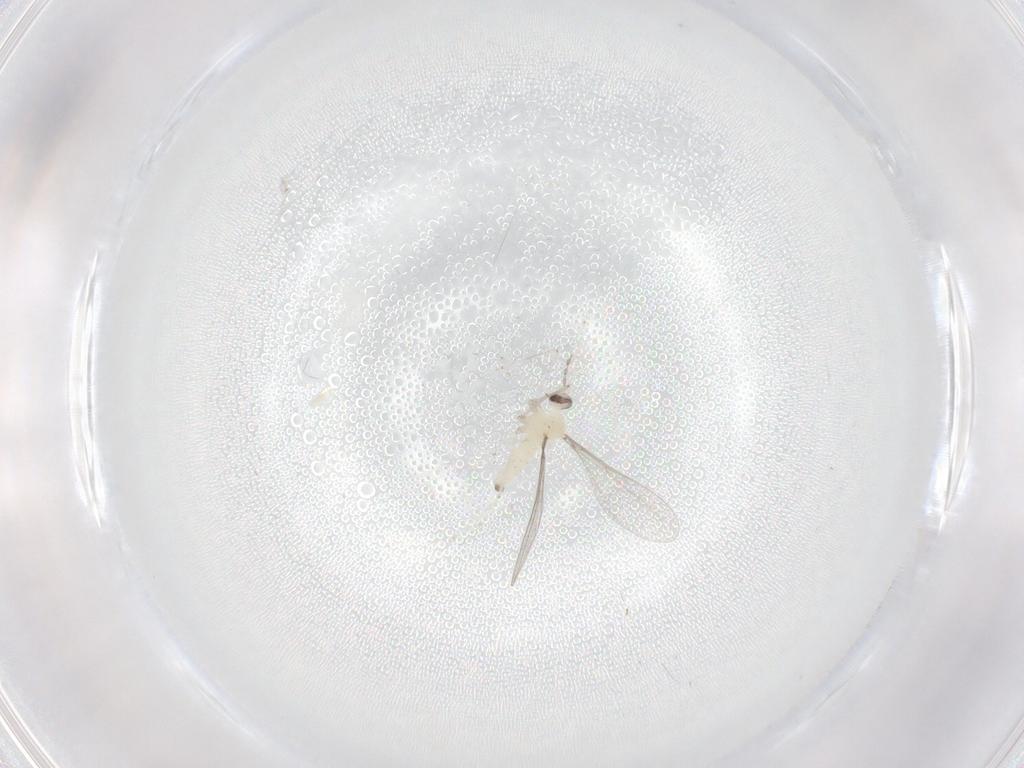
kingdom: Animalia
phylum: Arthropoda
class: Insecta
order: Diptera
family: Cecidomyiidae
